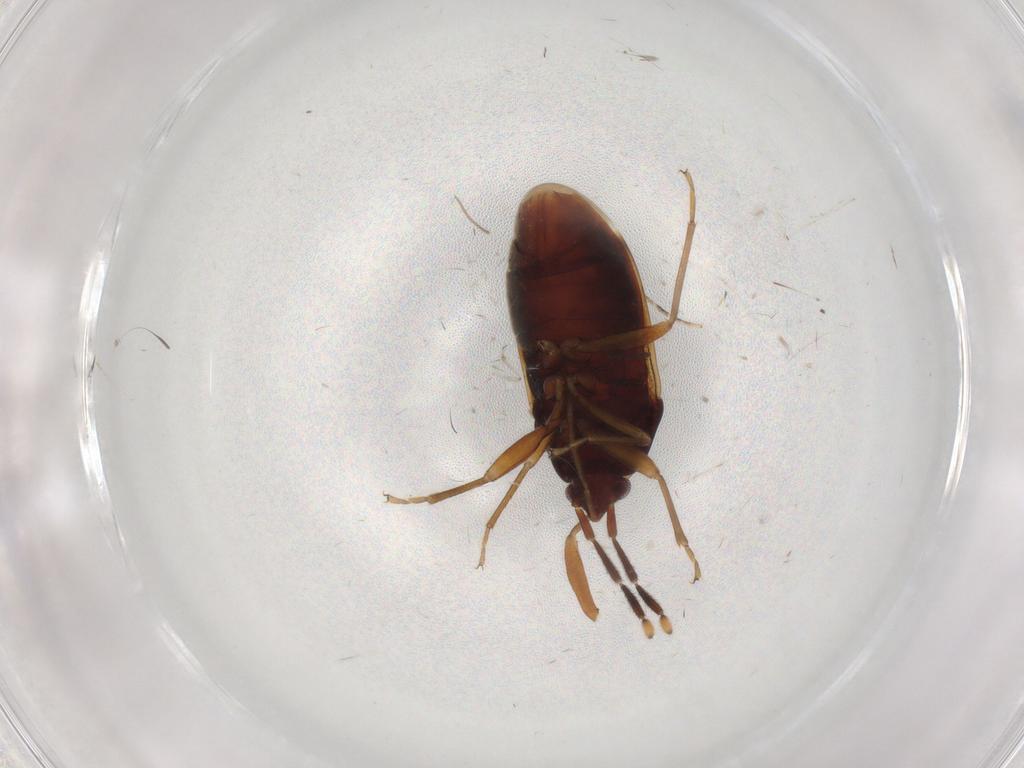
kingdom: Animalia
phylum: Arthropoda
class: Insecta
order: Hemiptera
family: Rhyparochromidae
